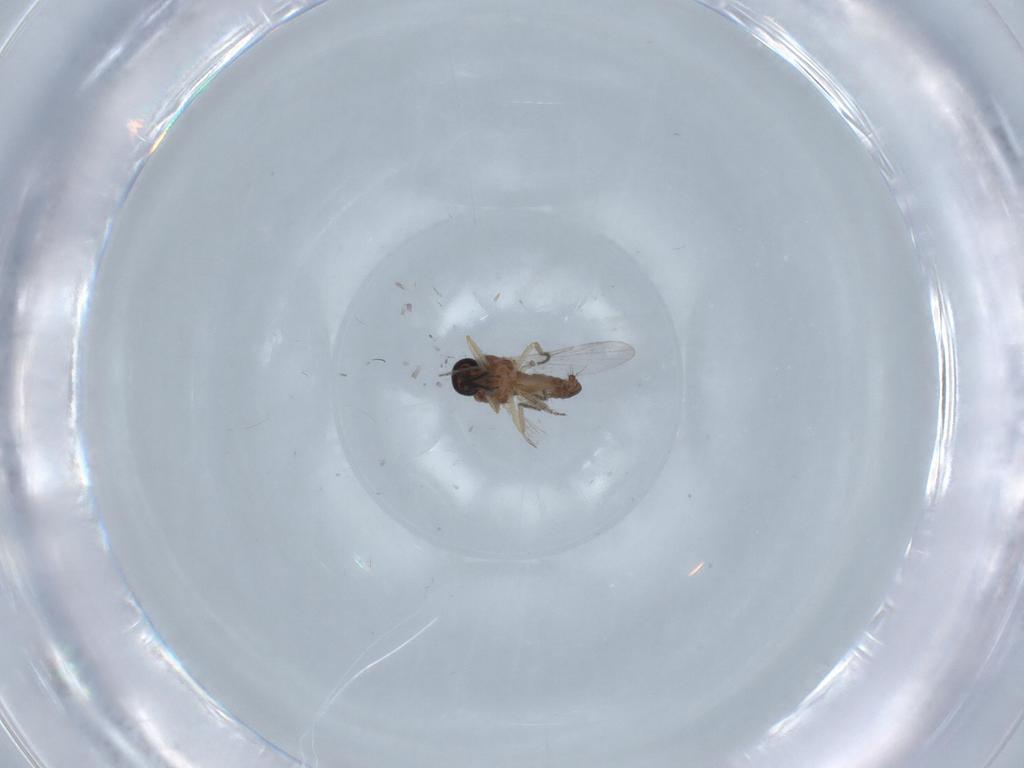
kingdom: Animalia
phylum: Arthropoda
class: Insecta
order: Diptera
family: Ceratopogonidae
